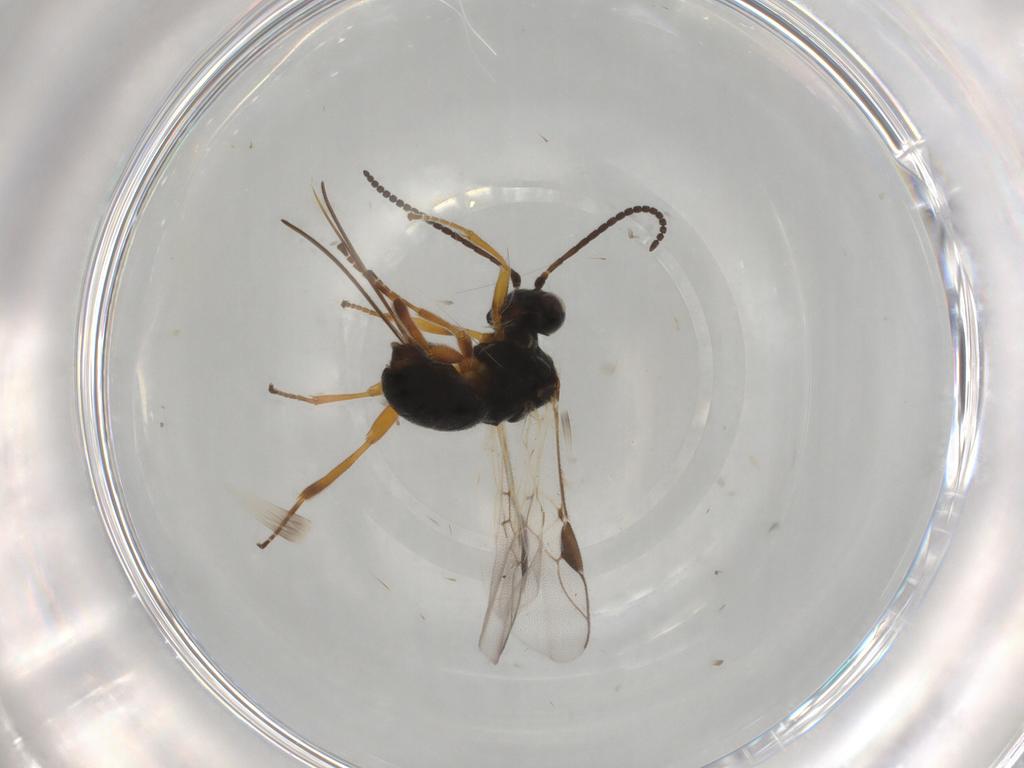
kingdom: Animalia
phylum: Arthropoda
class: Insecta
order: Hymenoptera
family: Braconidae
